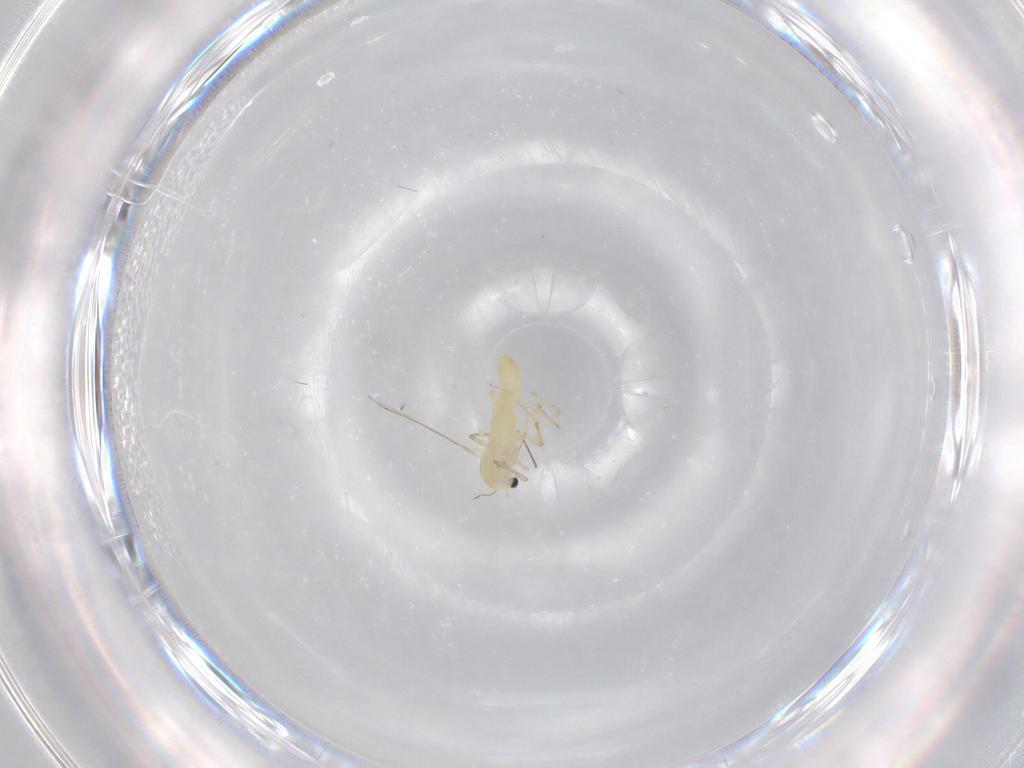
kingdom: Animalia
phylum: Arthropoda
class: Insecta
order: Diptera
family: Chironomidae
